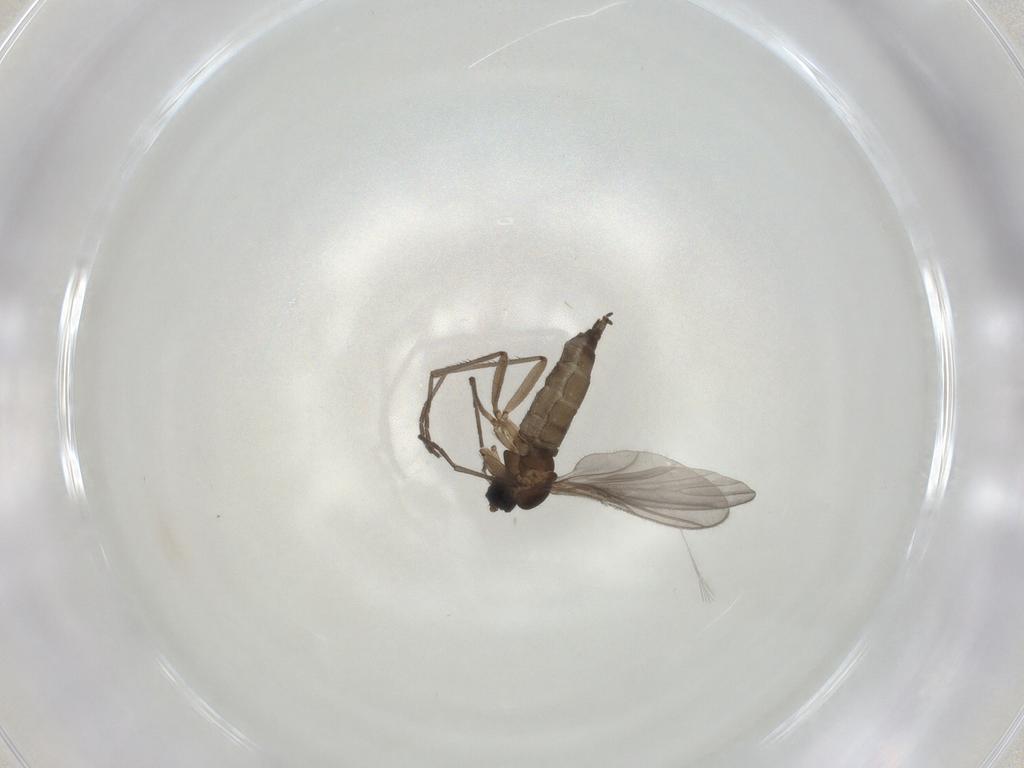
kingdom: Animalia
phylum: Arthropoda
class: Insecta
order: Diptera
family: Sciaridae
